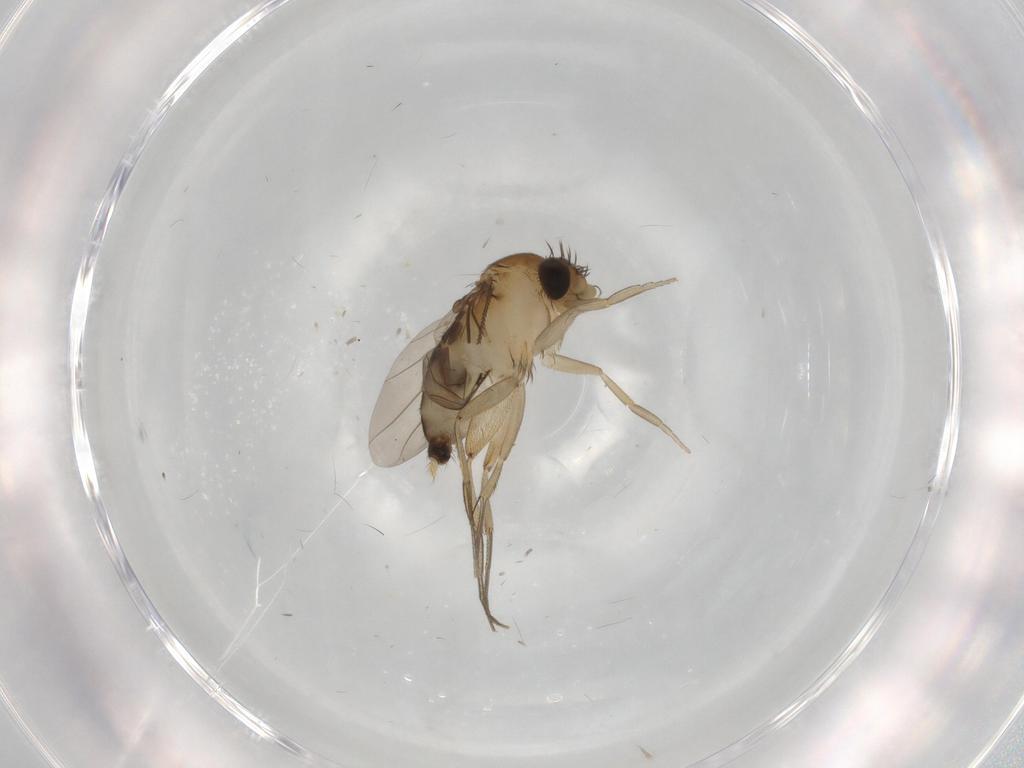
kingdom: Animalia
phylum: Arthropoda
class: Insecta
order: Diptera
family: Phoridae
